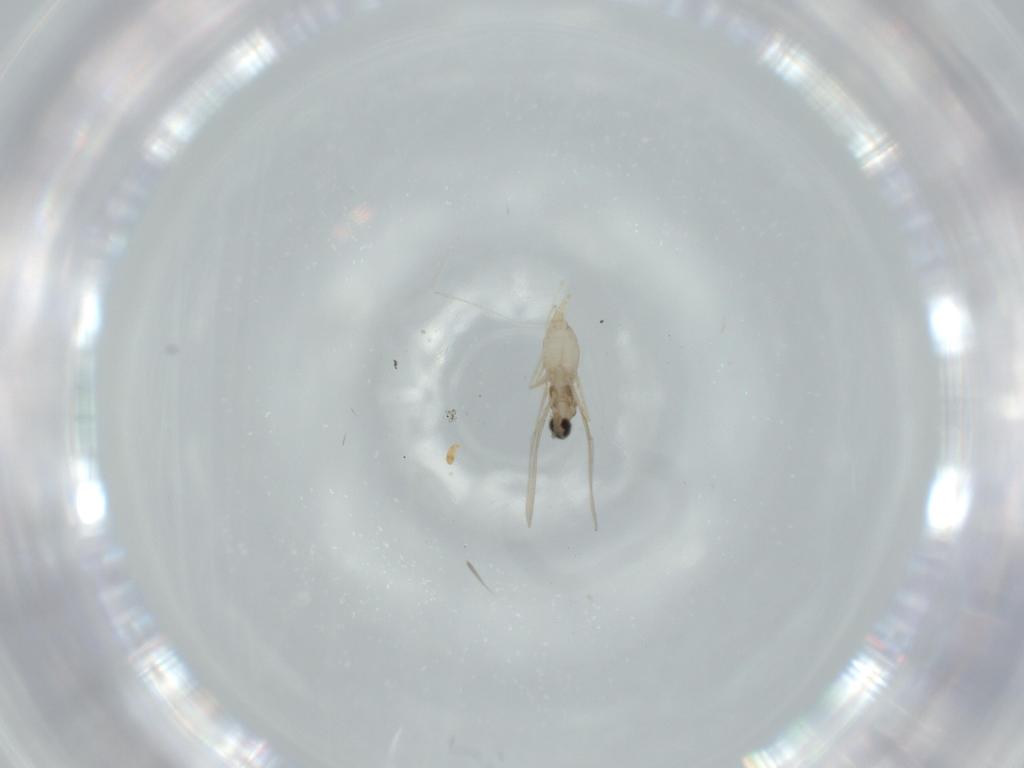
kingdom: Animalia
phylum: Arthropoda
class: Insecta
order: Diptera
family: Cecidomyiidae
